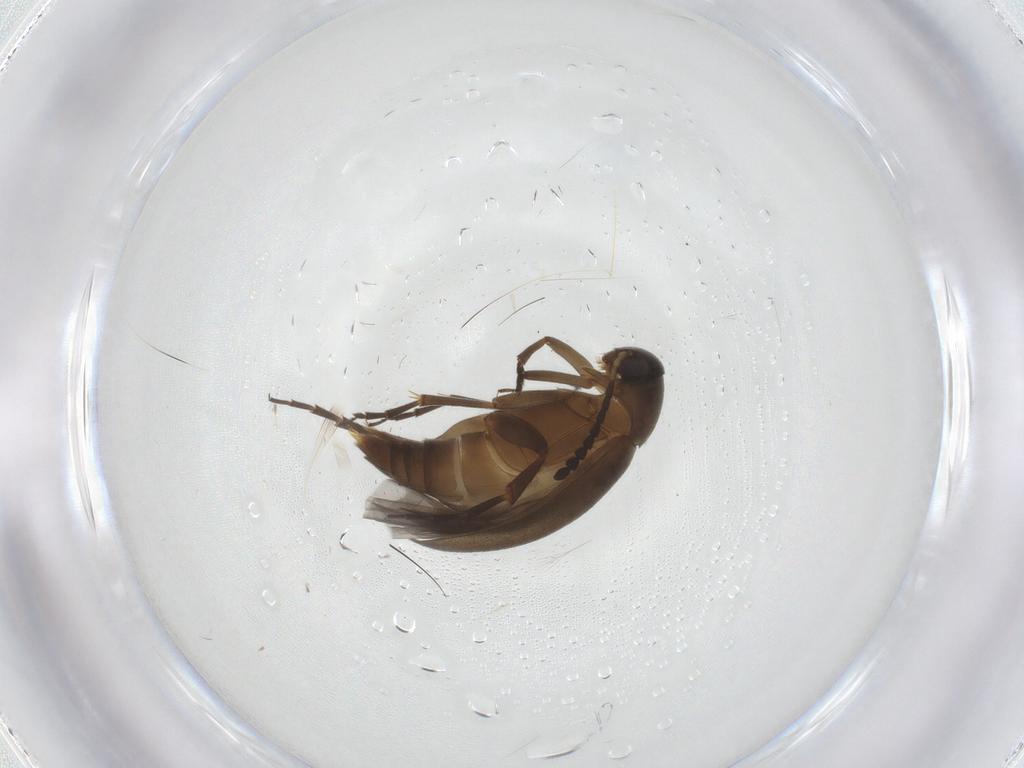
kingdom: Animalia
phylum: Arthropoda
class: Insecta
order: Coleoptera
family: Scraptiidae
